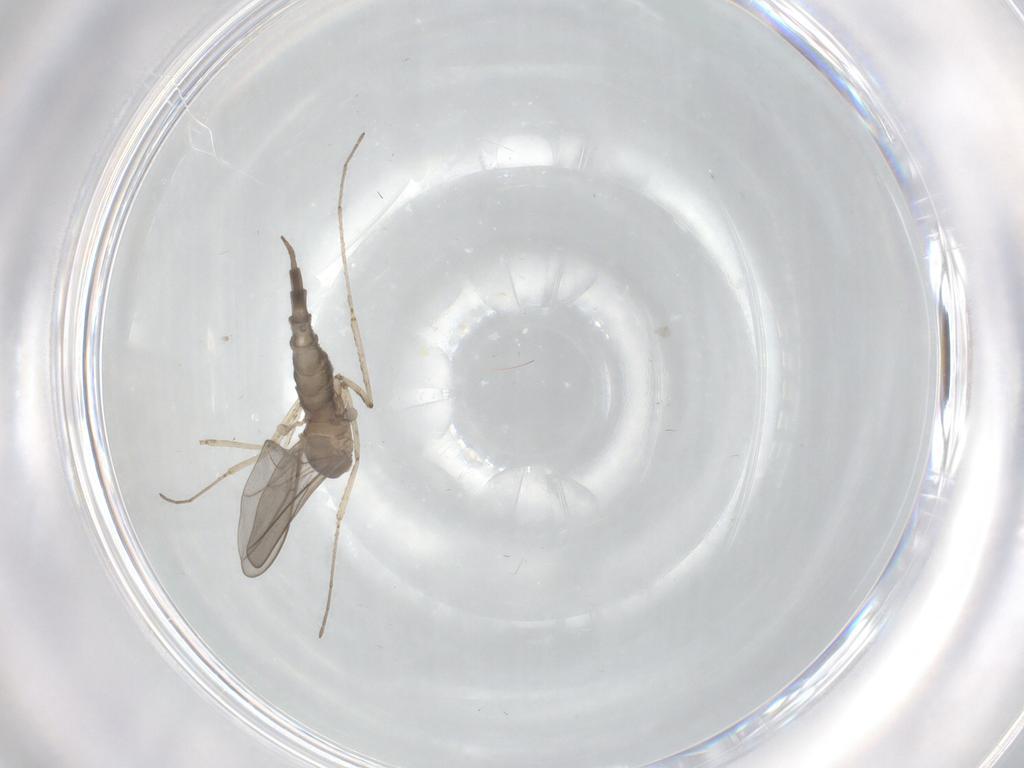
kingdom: Animalia
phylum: Arthropoda
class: Insecta
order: Diptera
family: Cecidomyiidae
